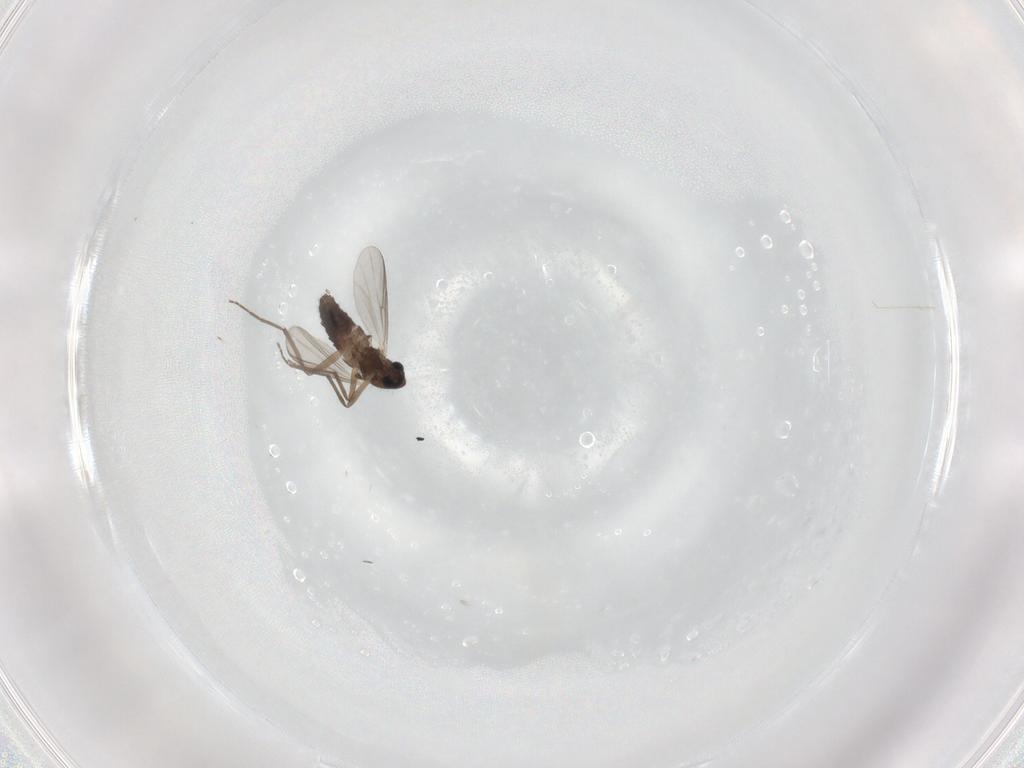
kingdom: Animalia
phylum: Arthropoda
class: Insecta
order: Diptera
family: Chironomidae
